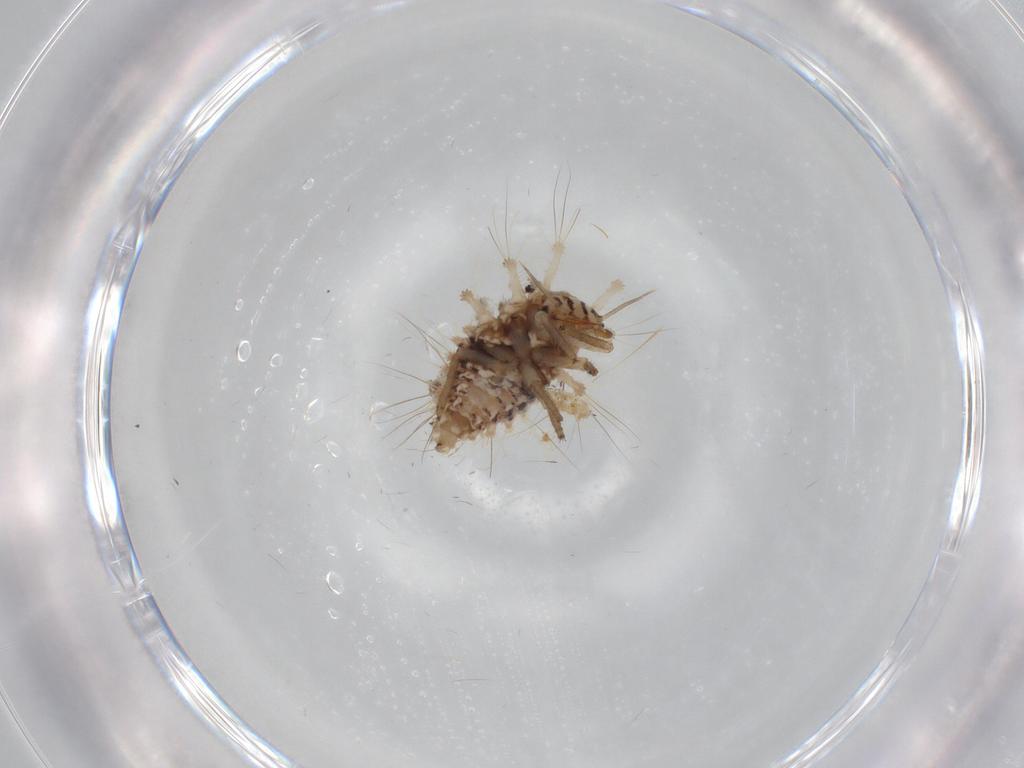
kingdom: Animalia
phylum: Arthropoda
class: Insecta
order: Neuroptera
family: Chrysopidae
